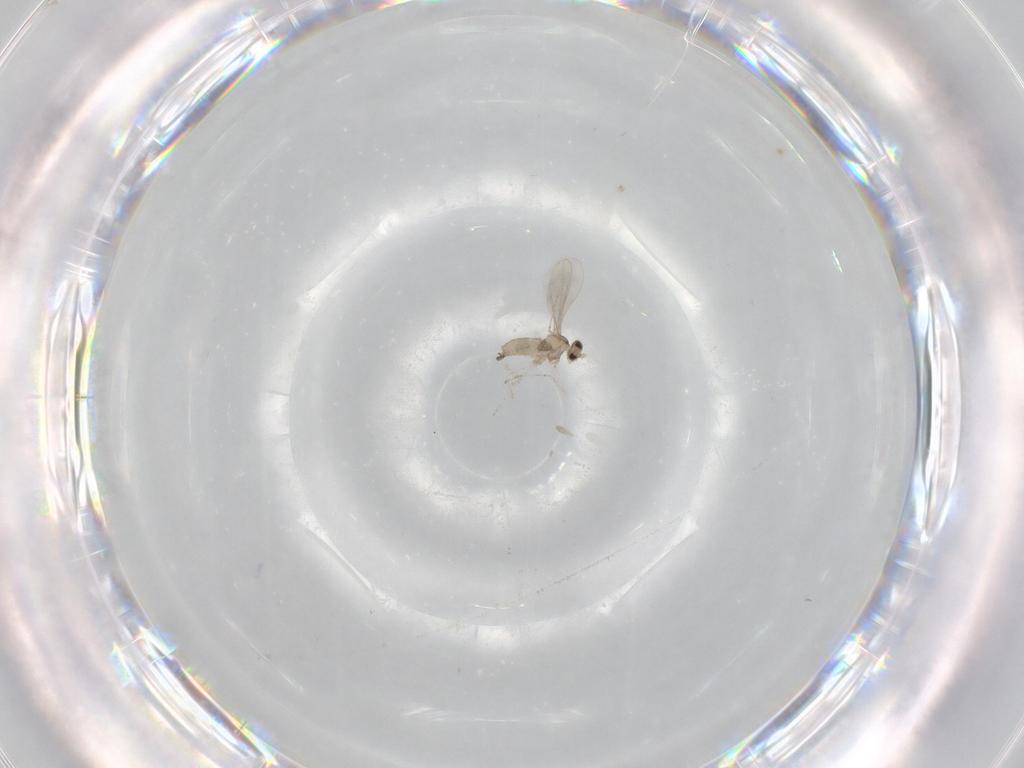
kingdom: Animalia
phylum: Arthropoda
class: Insecta
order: Diptera
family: Cecidomyiidae
